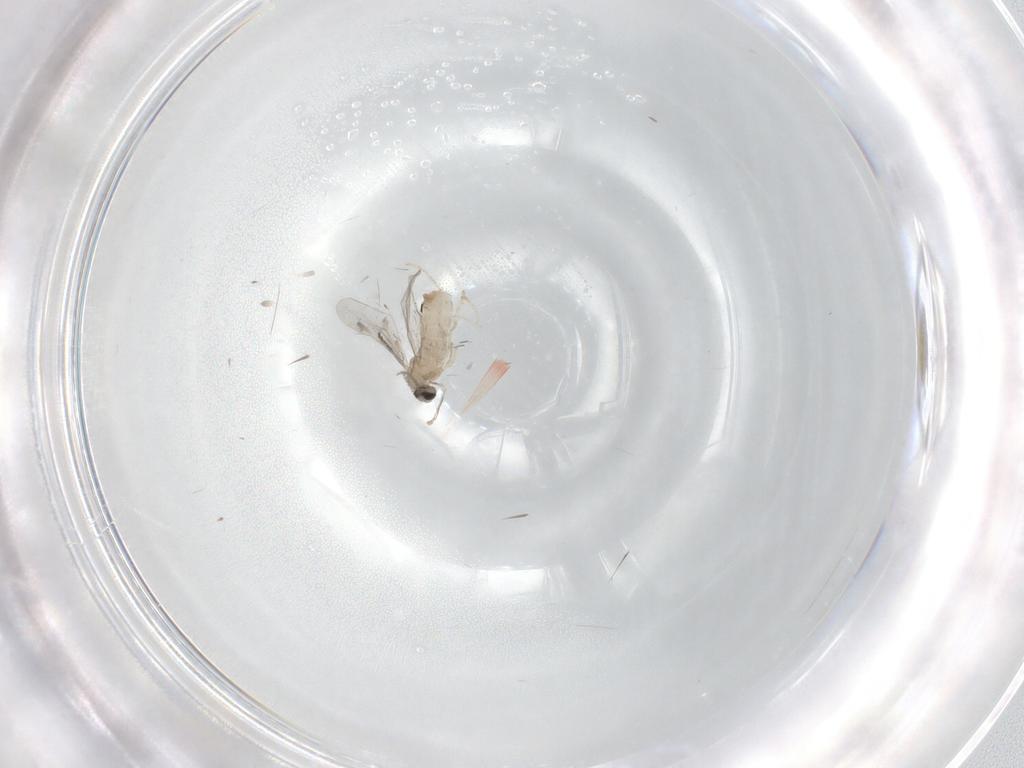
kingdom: Animalia
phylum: Arthropoda
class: Insecta
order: Diptera
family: Cecidomyiidae
